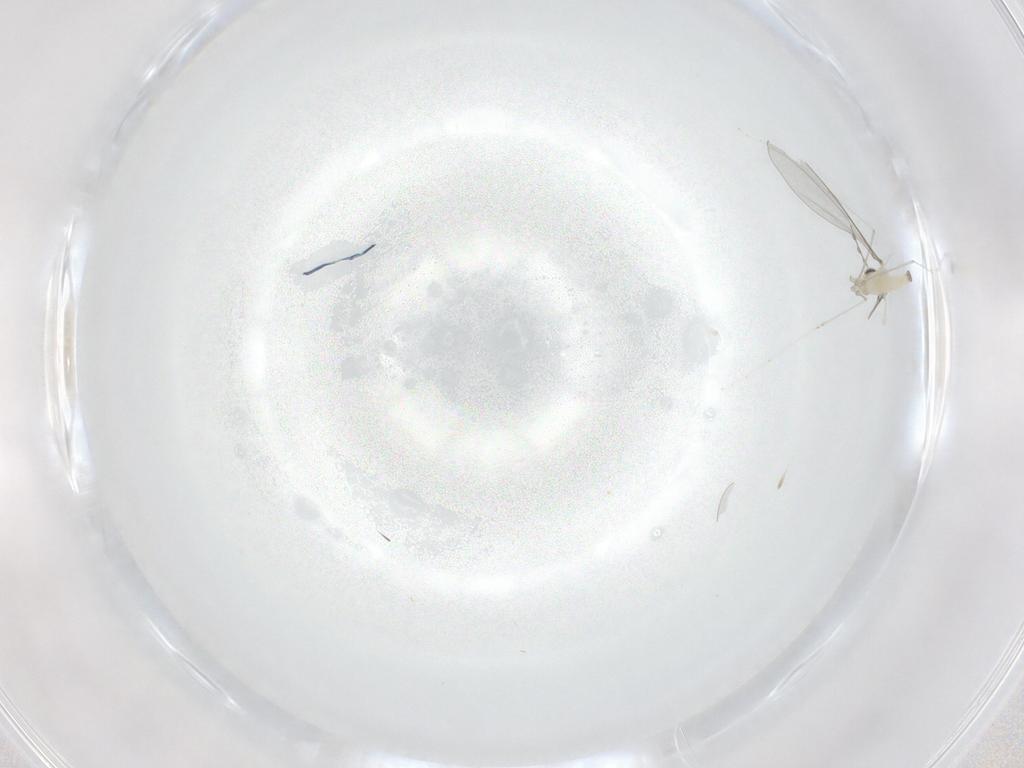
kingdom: Animalia
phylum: Arthropoda
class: Insecta
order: Diptera
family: Cecidomyiidae
